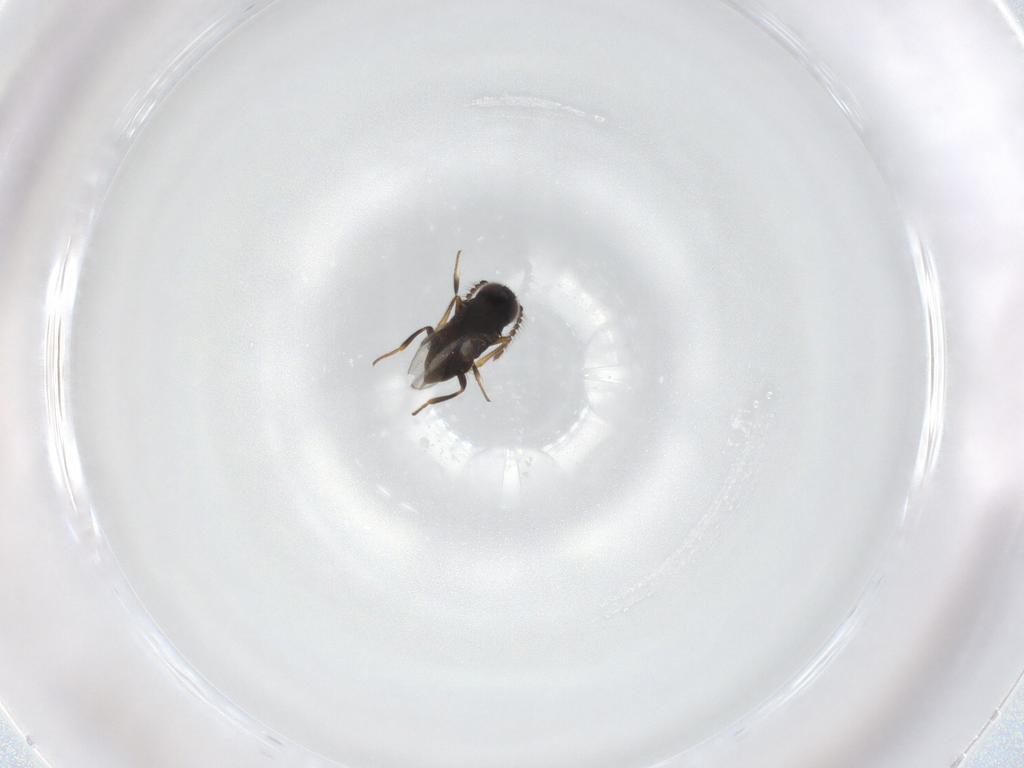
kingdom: Animalia
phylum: Arthropoda
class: Insecta
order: Hymenoptera
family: Encyrtidae
